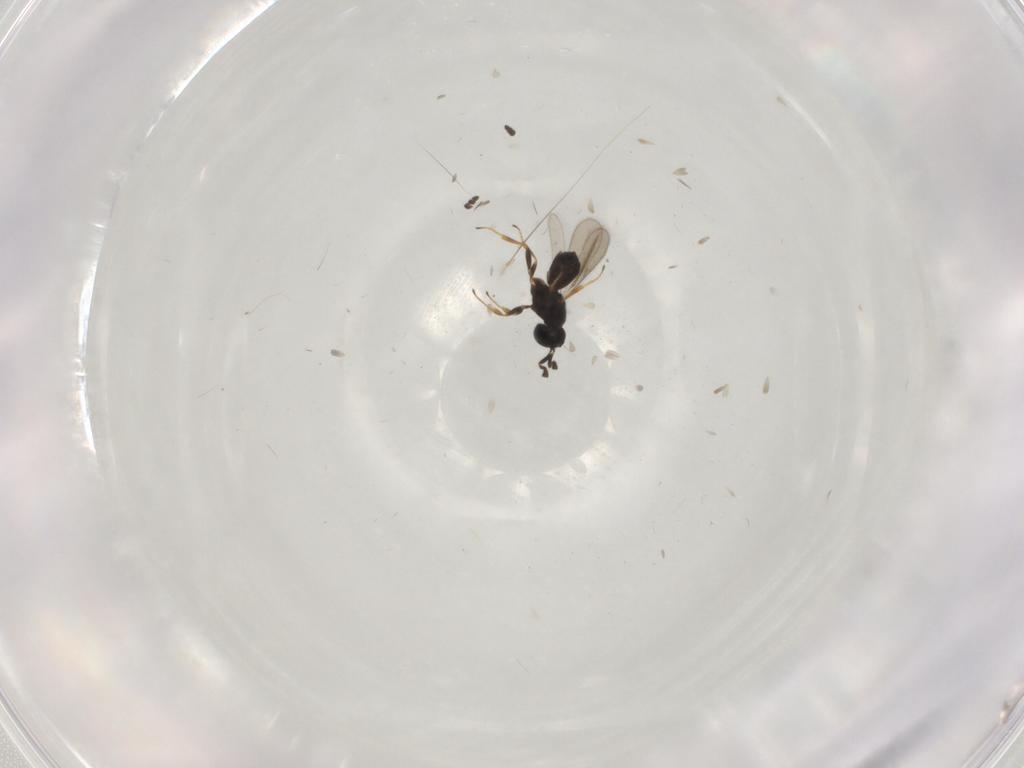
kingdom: Animalia
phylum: Arthropoda
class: Insecta
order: Hymenoptera
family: Scelionidae
